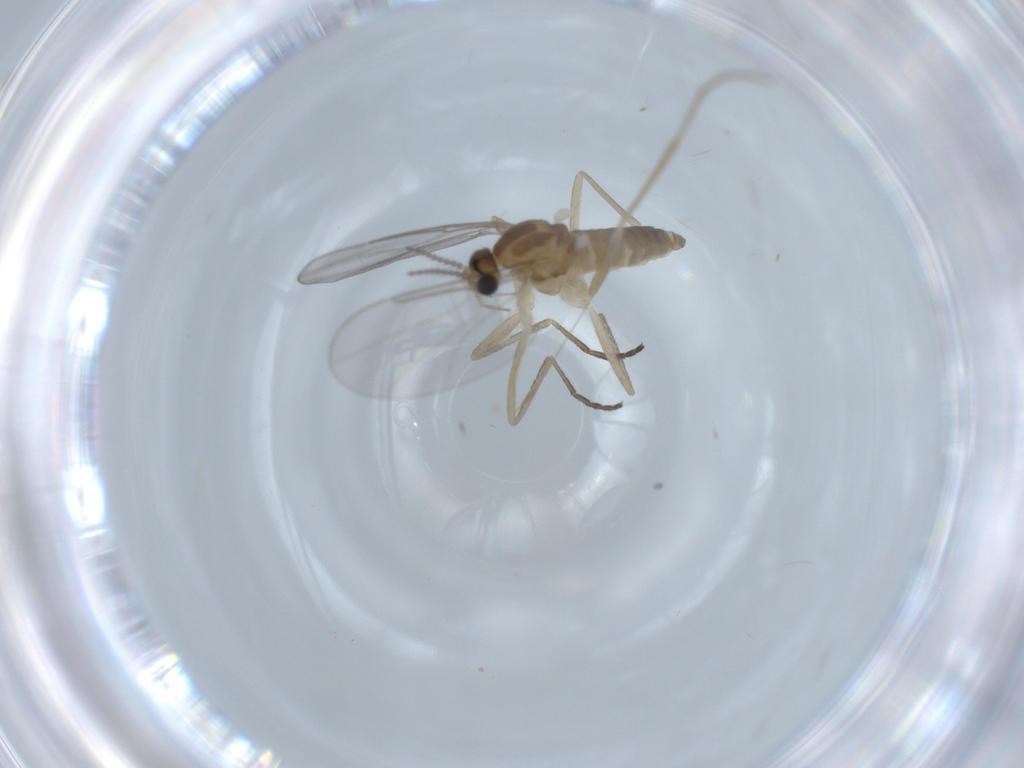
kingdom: Animalia
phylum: Arthropoda
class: Insecta
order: Diptera
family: Cecidomyiidae
